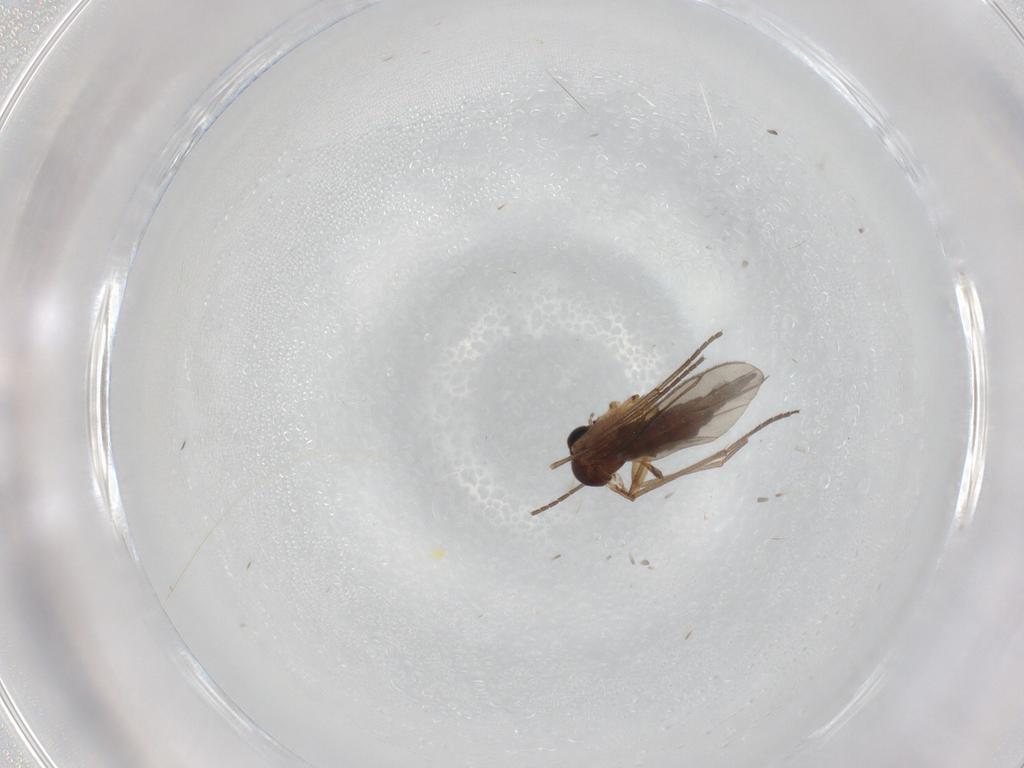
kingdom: Animalia
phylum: Arthropoda
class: Insecta
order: Diptera
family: Sciaridae
